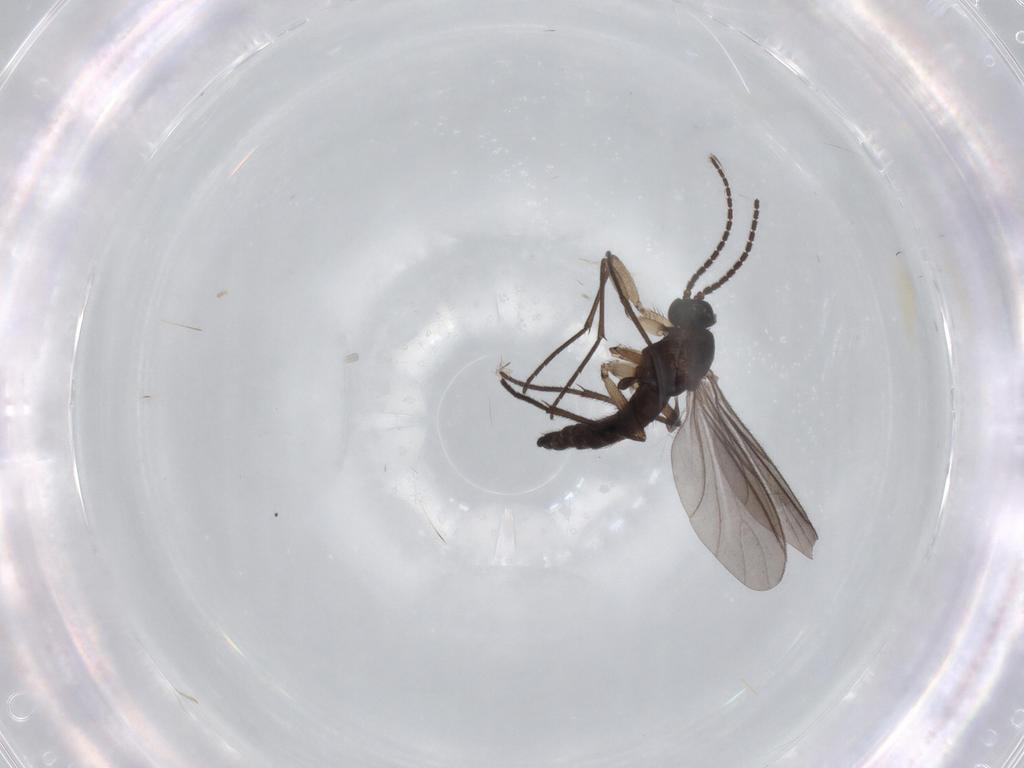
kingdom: Animalia
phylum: Arthropoda
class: Insecta
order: Diptera
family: Sciaridae
